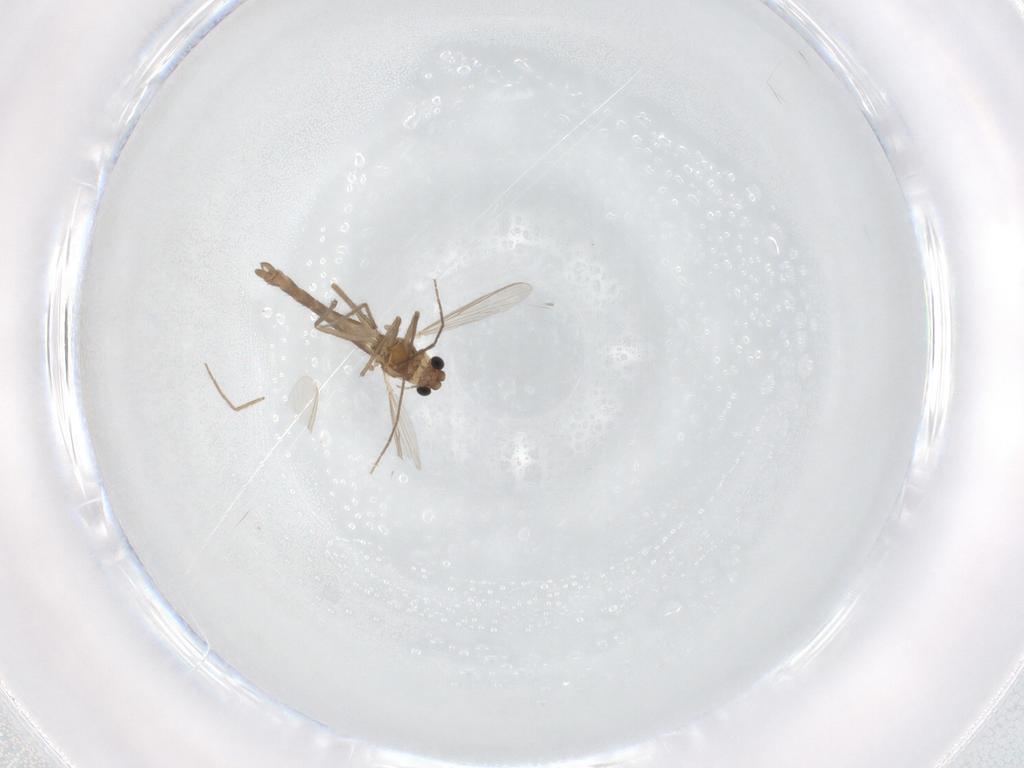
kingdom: Animalia
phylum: Arthropoda
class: Insecta
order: Diptera
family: Chironomidae
